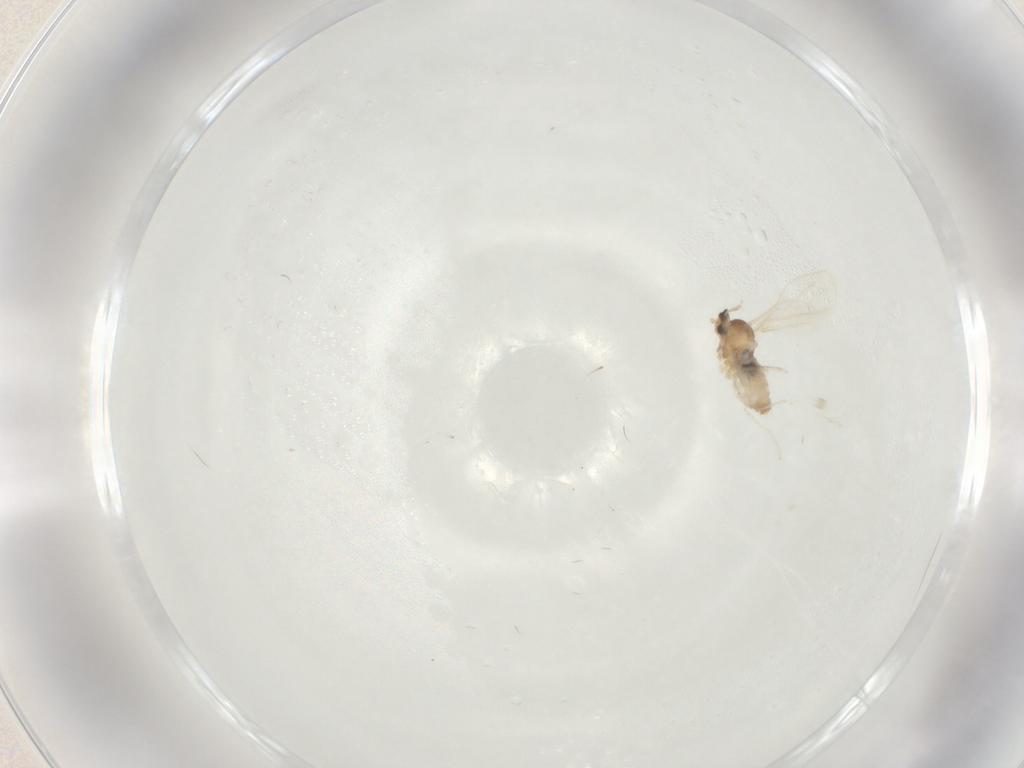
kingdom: Animalia
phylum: Arthropoda
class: Insecta
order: Diptera
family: Cecidomyiidae
